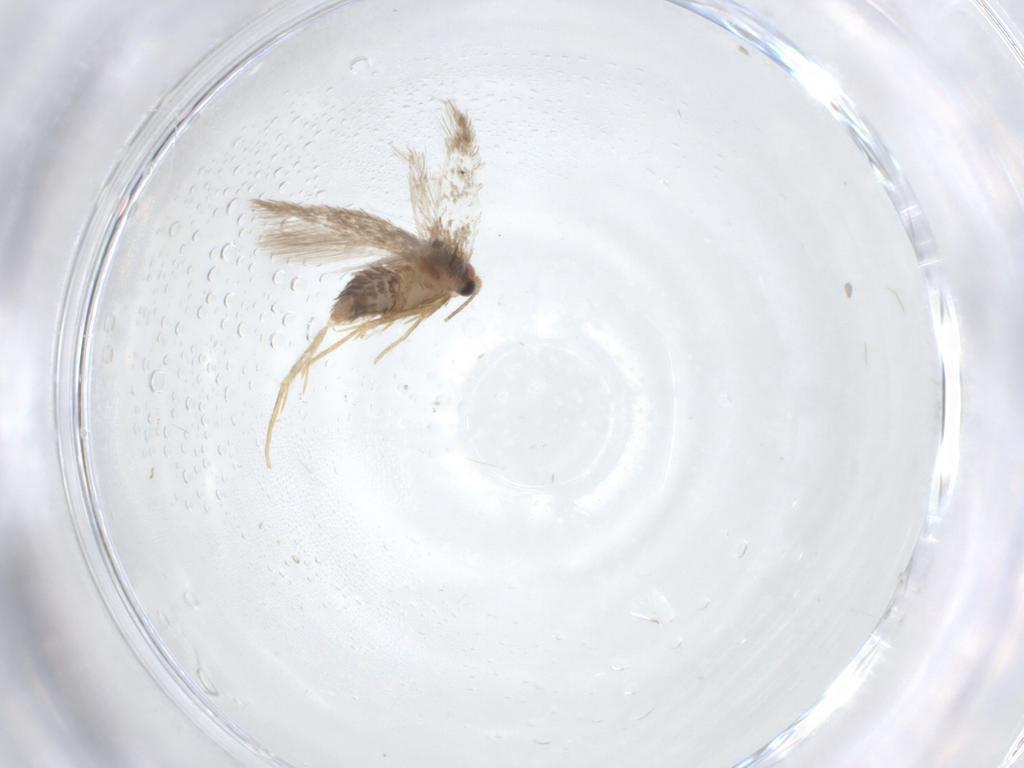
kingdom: Animalia
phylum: Arthropoda
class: Insecta
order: Lepidoptera
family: Nepticulidae
